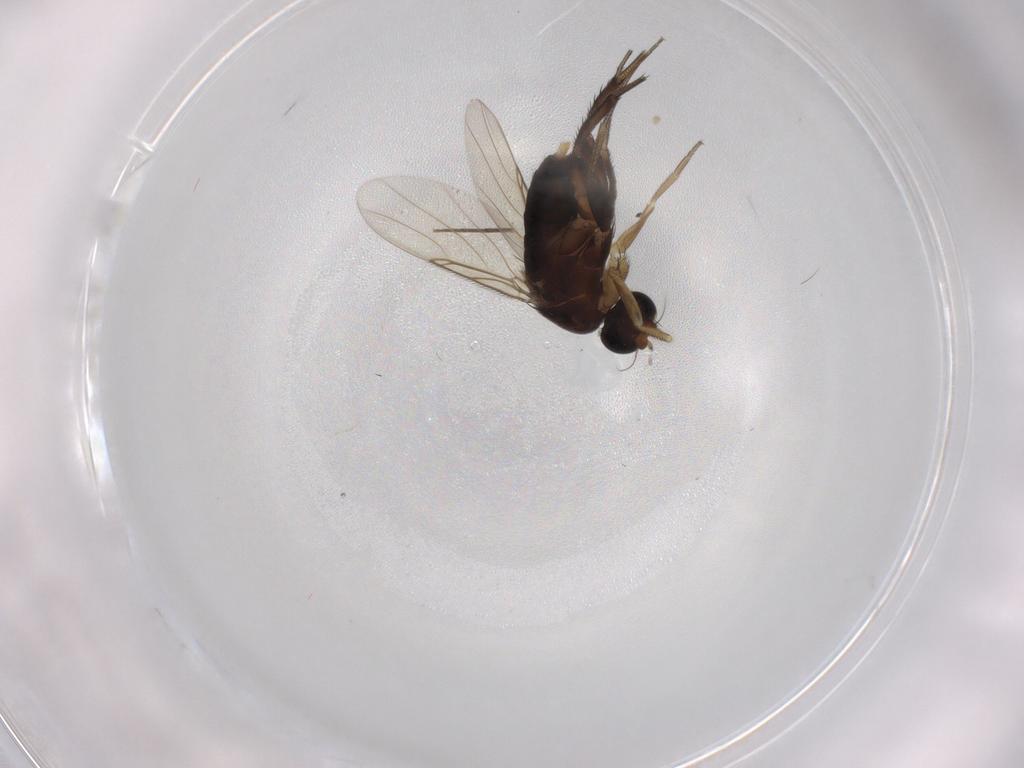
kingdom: Animalia
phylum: Arthropoda
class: Insecta
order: Diptera
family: Phoridae
